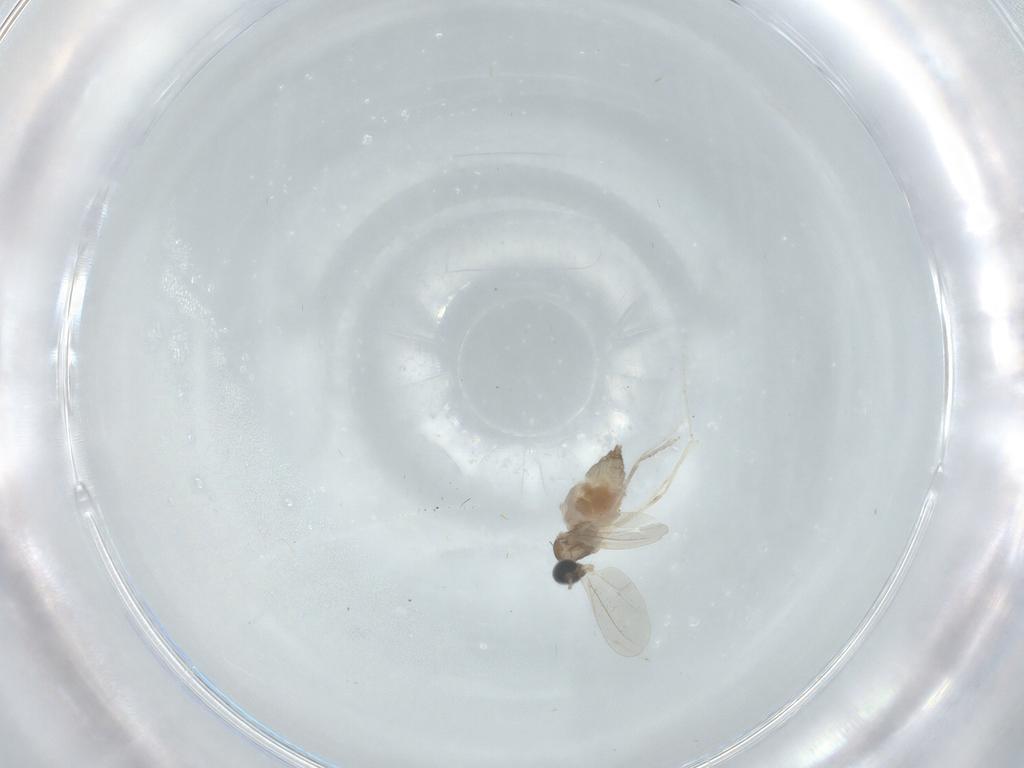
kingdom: Animalia
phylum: Arthropoda
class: Insecta
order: Diptera
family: Cecidomyiidae
